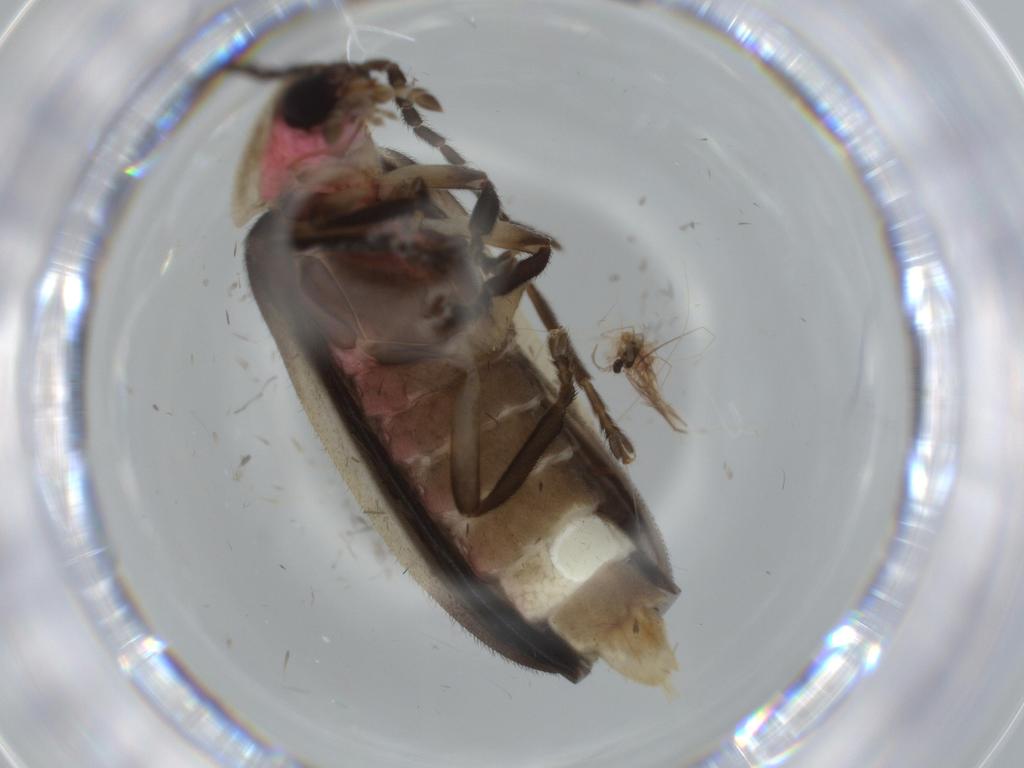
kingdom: Animalia
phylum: Arthropoda
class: Insecta
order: Coleoptera
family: Lampyridae
